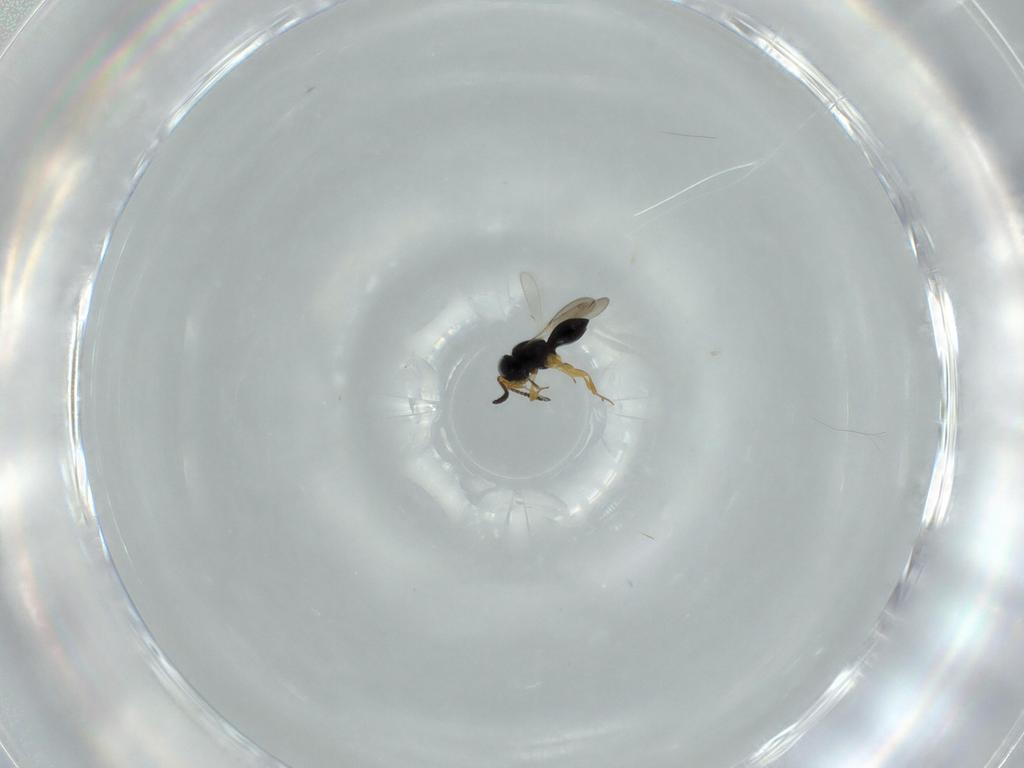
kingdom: Animalia
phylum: Arthropoda
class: Insecta
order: Hymenoptera
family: Scelionidae
